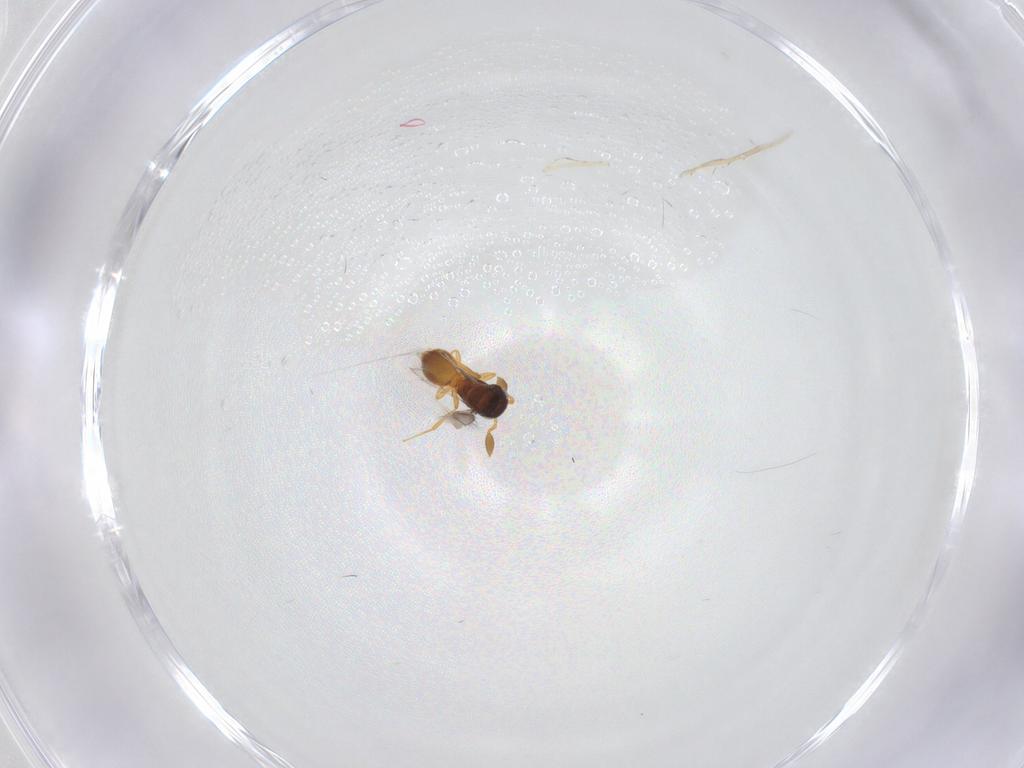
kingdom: Animalia
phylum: Arthropoda
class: Insecta
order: Hymenoptera
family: Scelionidae
